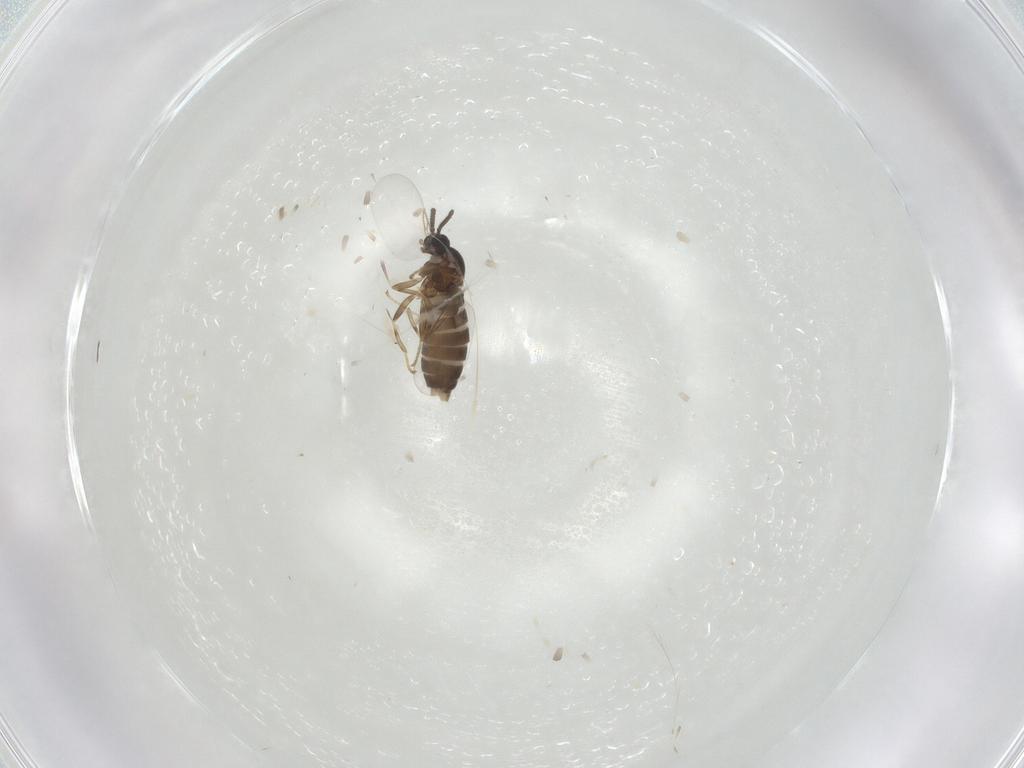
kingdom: Animalia
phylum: Arthropoda
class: Insecta
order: Diptera
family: Scatopsidae
